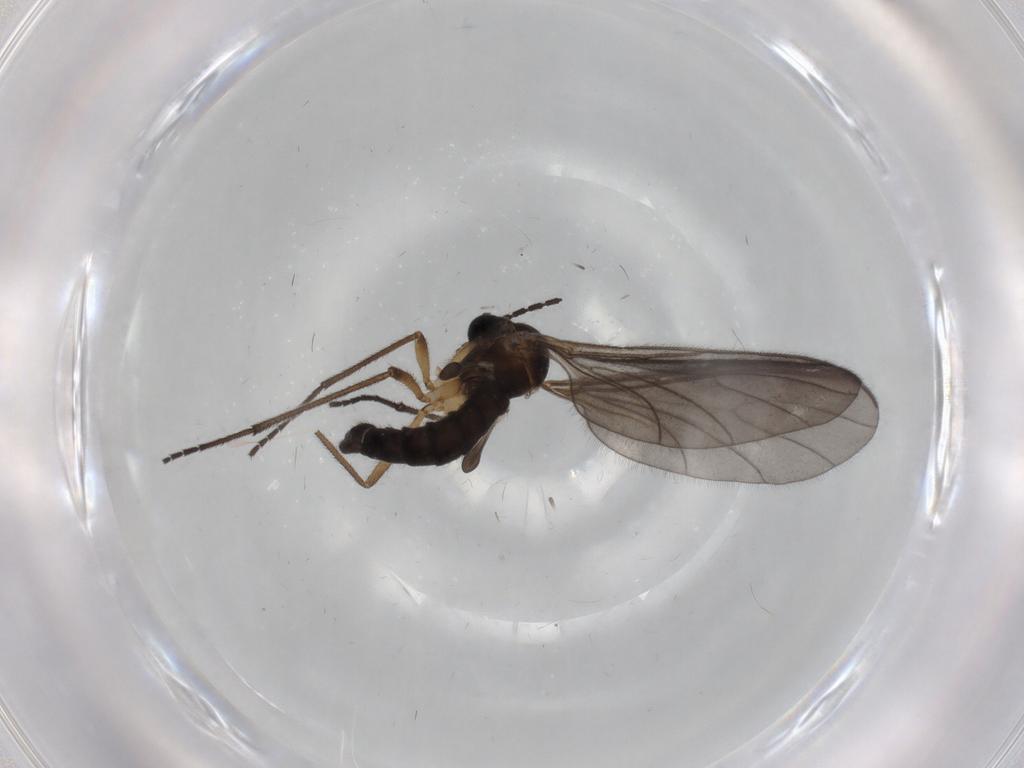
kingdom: Animalia
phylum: Arthropoda
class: Insecta
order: Diptera
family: Sciaridae
